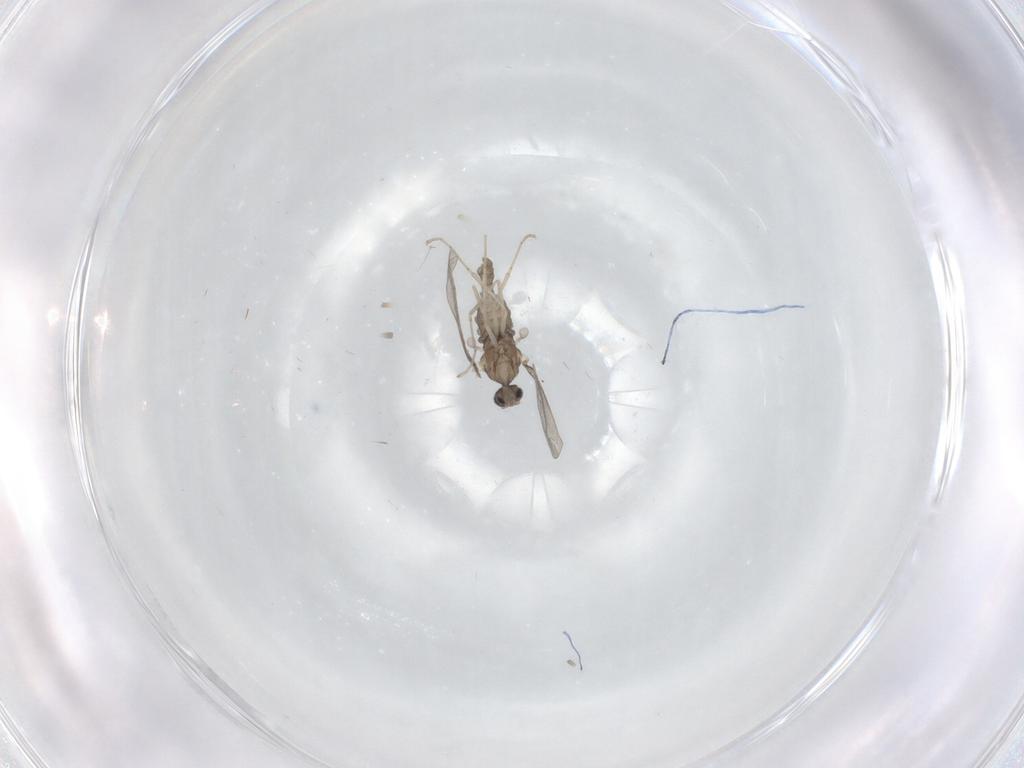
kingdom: Animalia
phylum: Arthropoda
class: Insecta
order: Diptera
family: Cecidomyiidae
